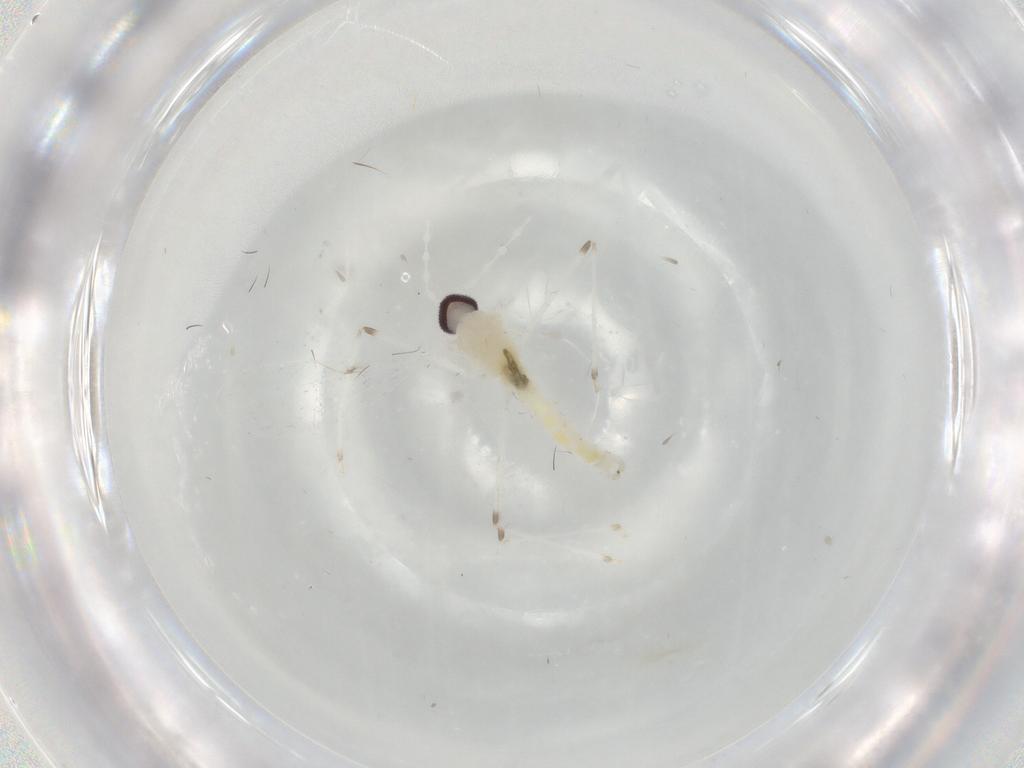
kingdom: Animalia
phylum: Arthropoda
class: Insecta
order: Diptera
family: Cecidomyiidae
